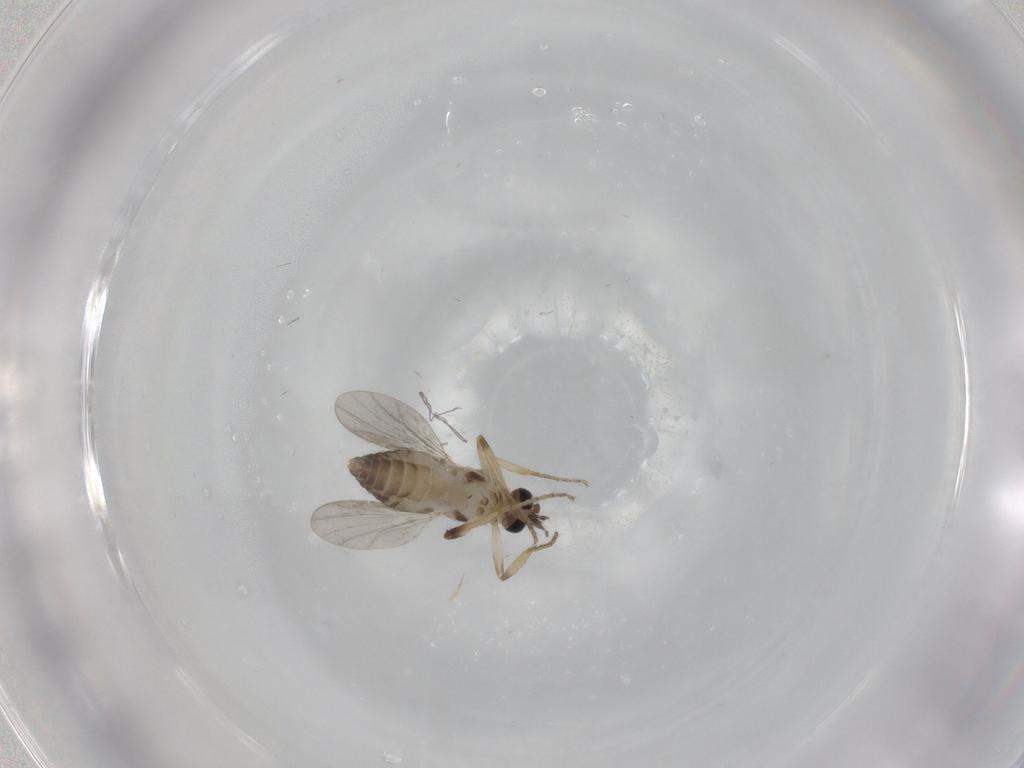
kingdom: Animalia
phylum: Arthropoda
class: Insecta
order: Diptera
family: Ceratopogonidae
